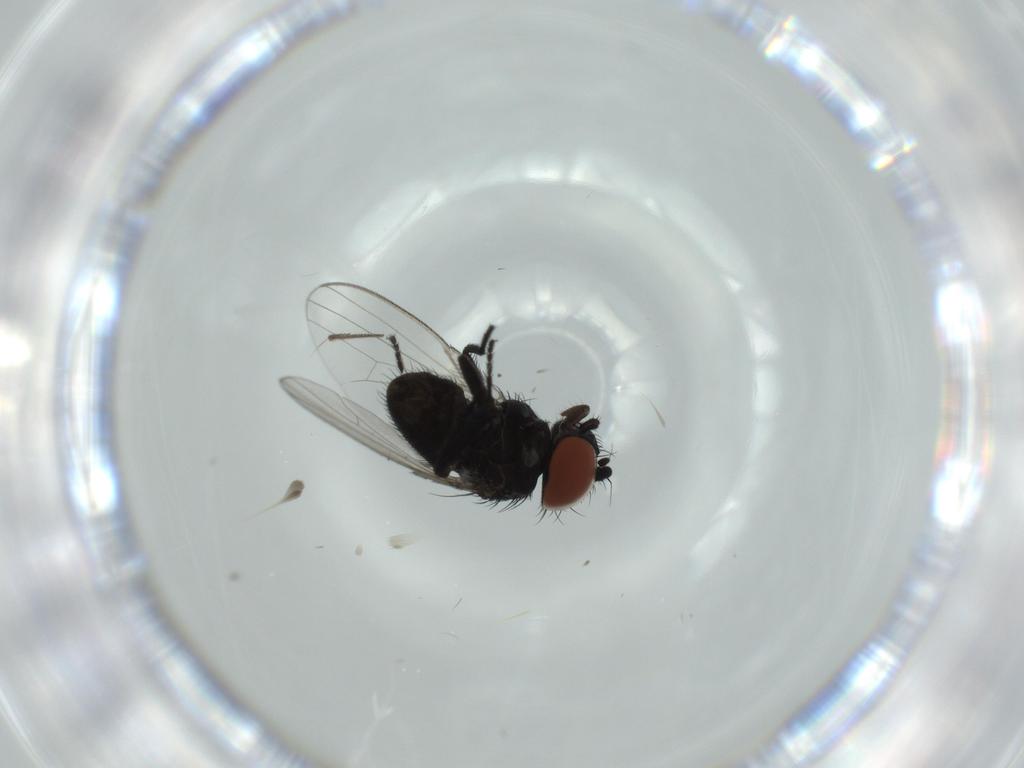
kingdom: Animalia
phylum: Arthropoda
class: Insecta
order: Diptera
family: Milichiidae
